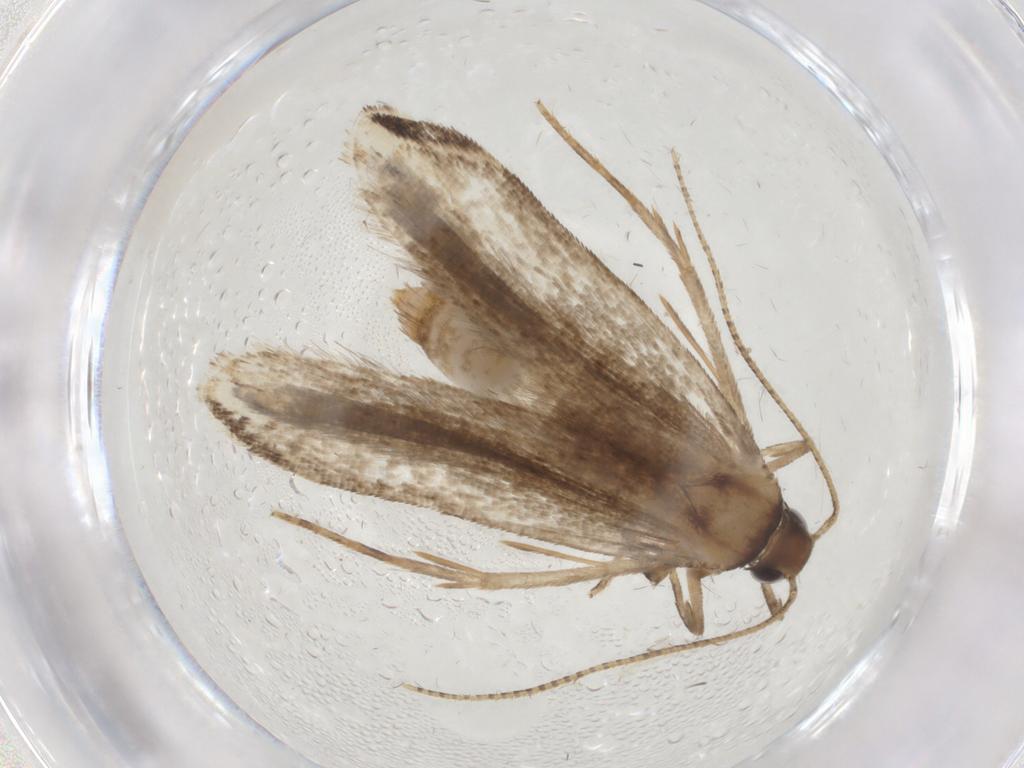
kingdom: Animalia
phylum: Arthropoda
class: Insecta
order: Lepidoptera
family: Gelechiidae
